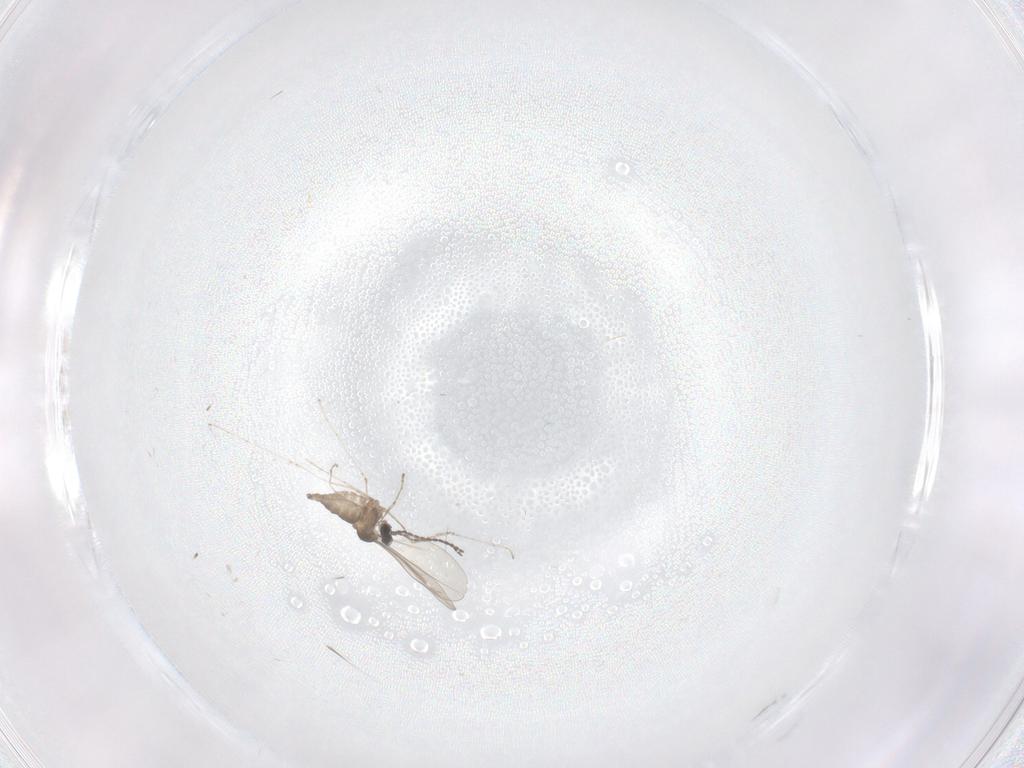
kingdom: Animalia
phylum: Arthropoda
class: Insecta
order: Diptera
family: Cecidomyiidae
